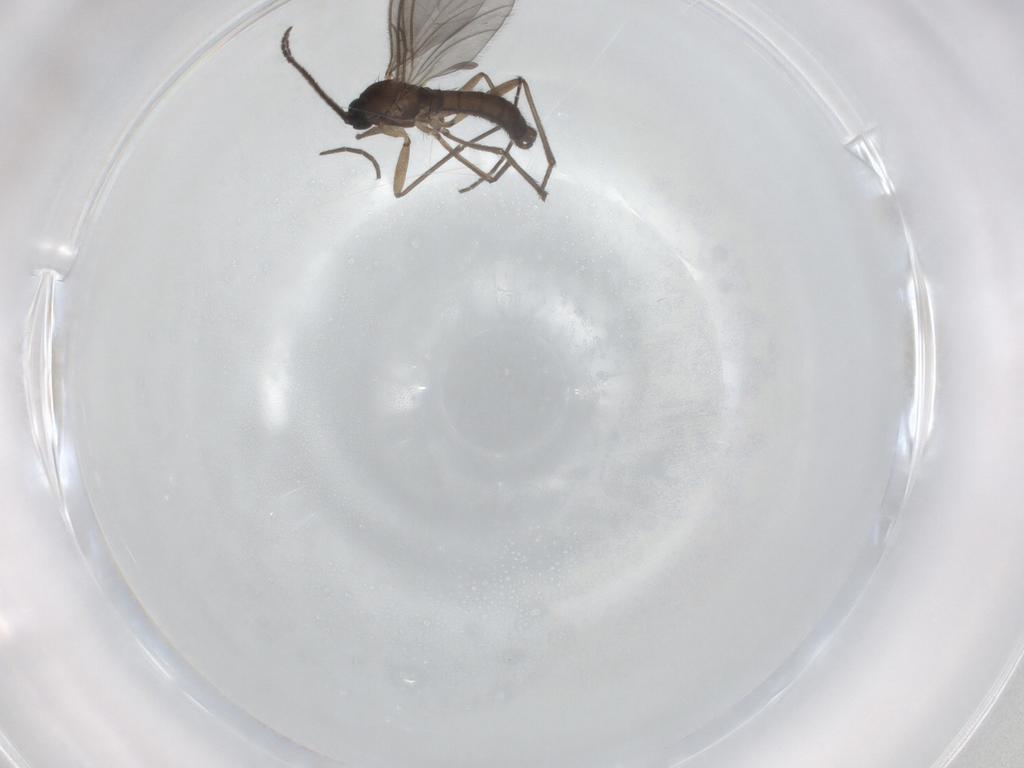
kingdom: Animalia
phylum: Arthropoda
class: Insecta
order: Diptera
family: Sciaridae
